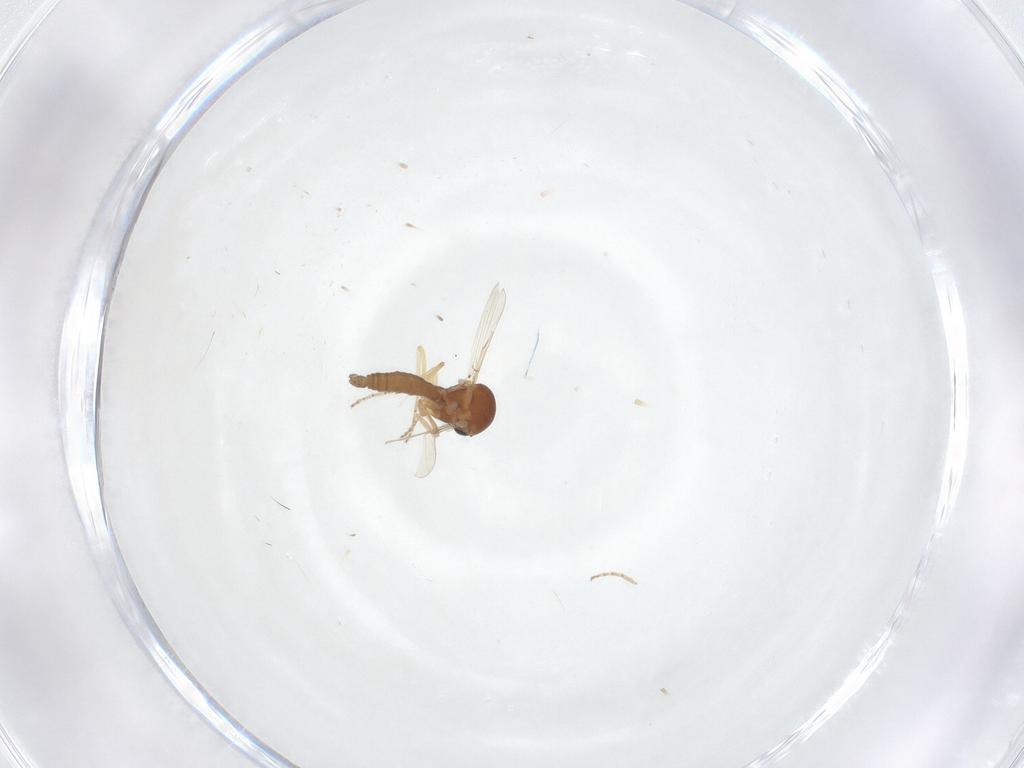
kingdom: Animalia
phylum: Arthropoda
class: Insecta
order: Diptera
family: Ceratopogonidae
